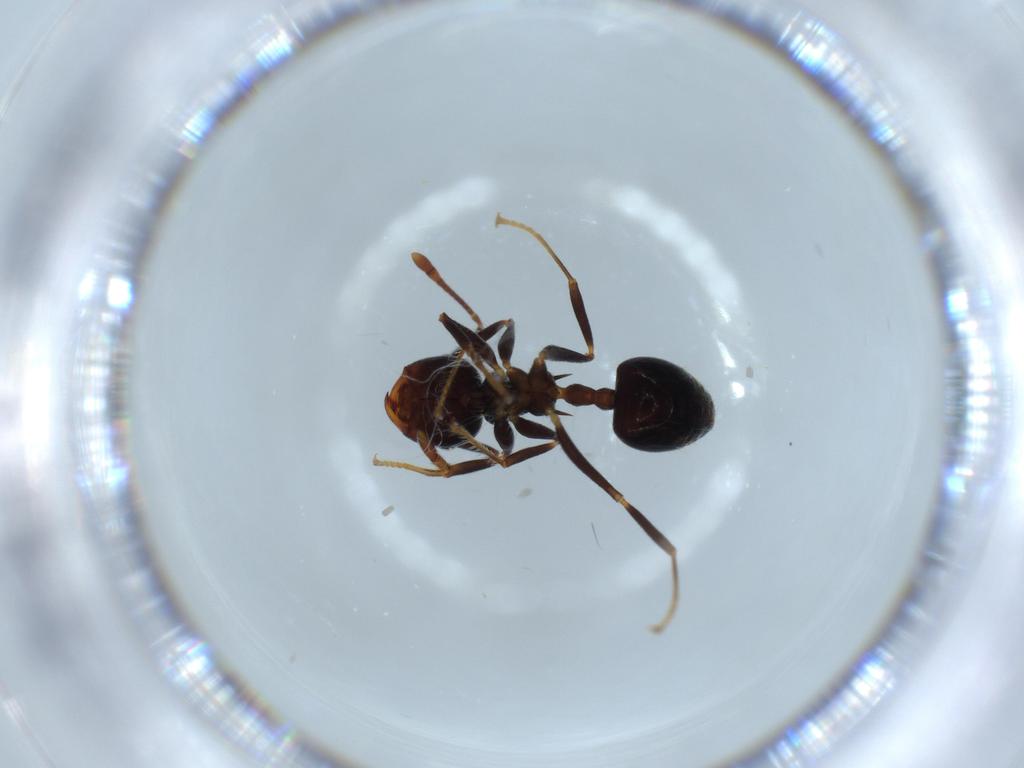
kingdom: Animalia
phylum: Arthropoda
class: Insecta
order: Hymenoptera
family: Formicidae
